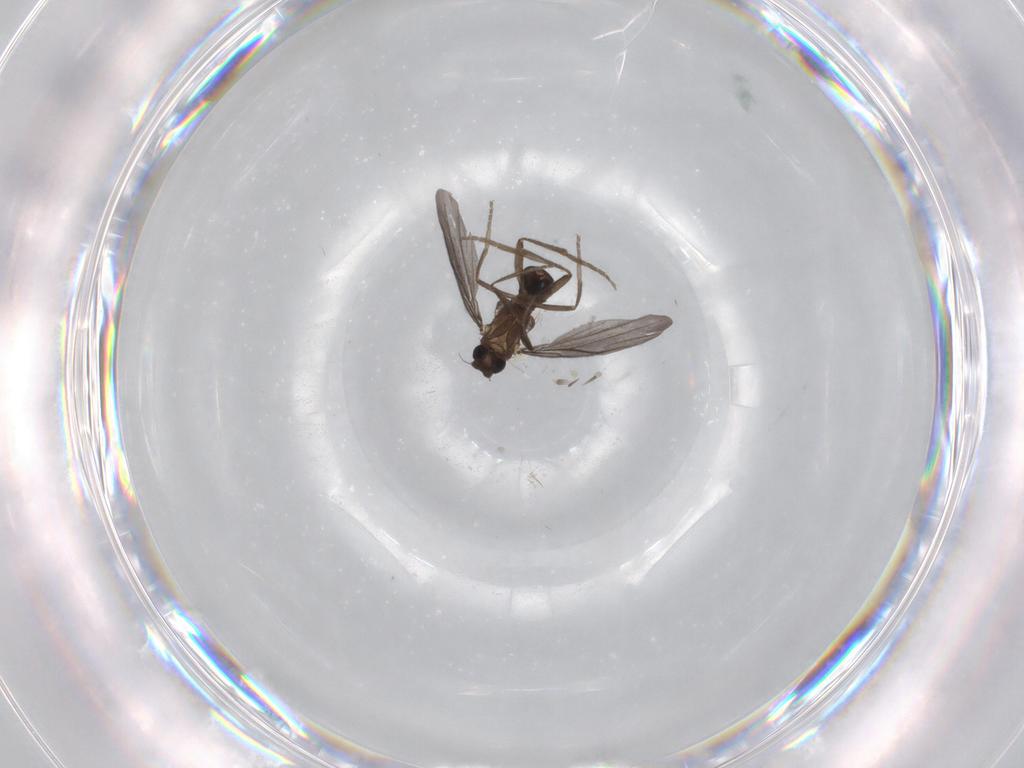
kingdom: Animalia
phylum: Arthropoda
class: Insecta
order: Diptera
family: Phoridae
